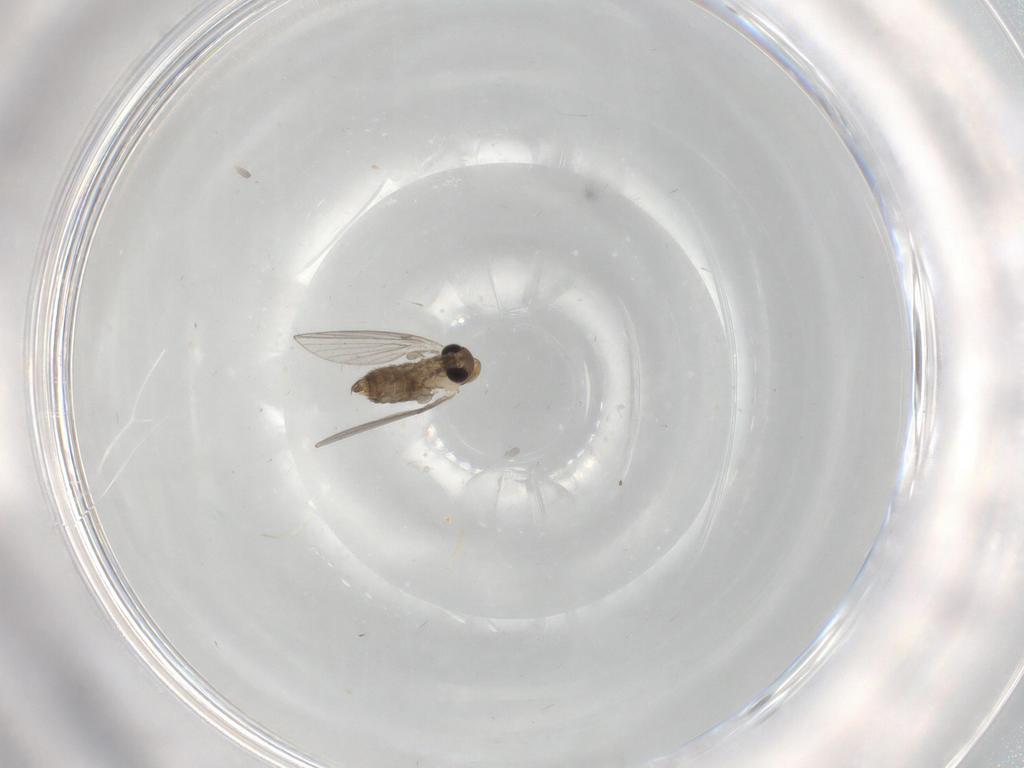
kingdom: Animalia
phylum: Arthropoda
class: Insecta
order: Diptera
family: Psychodidae
